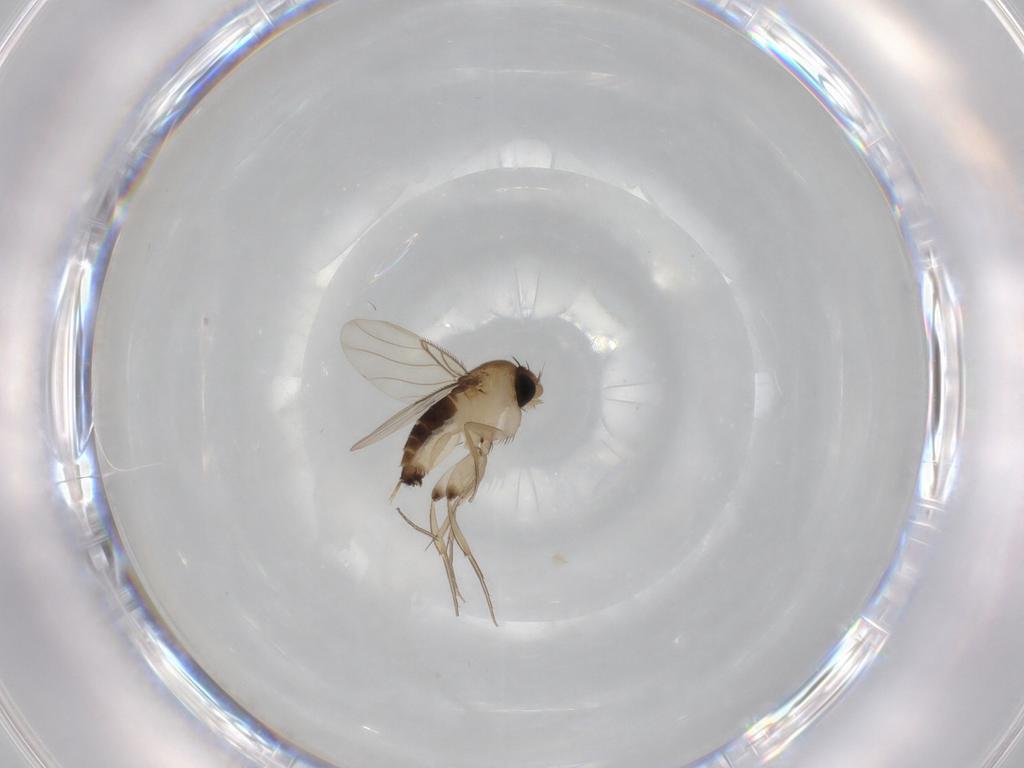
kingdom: Animalia
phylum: Arthropoda
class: Insecta
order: Diptera
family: Phoridae
